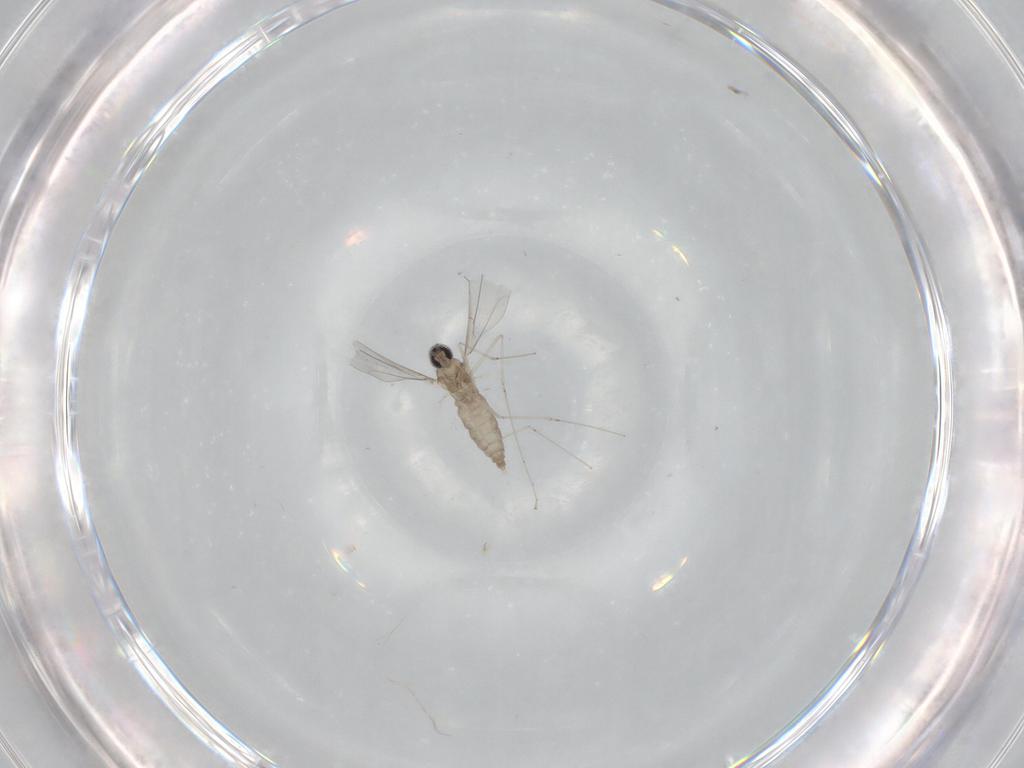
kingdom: Animalia
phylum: Arthropoda
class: Insecta
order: Diptera
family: Cecidomyiidae
